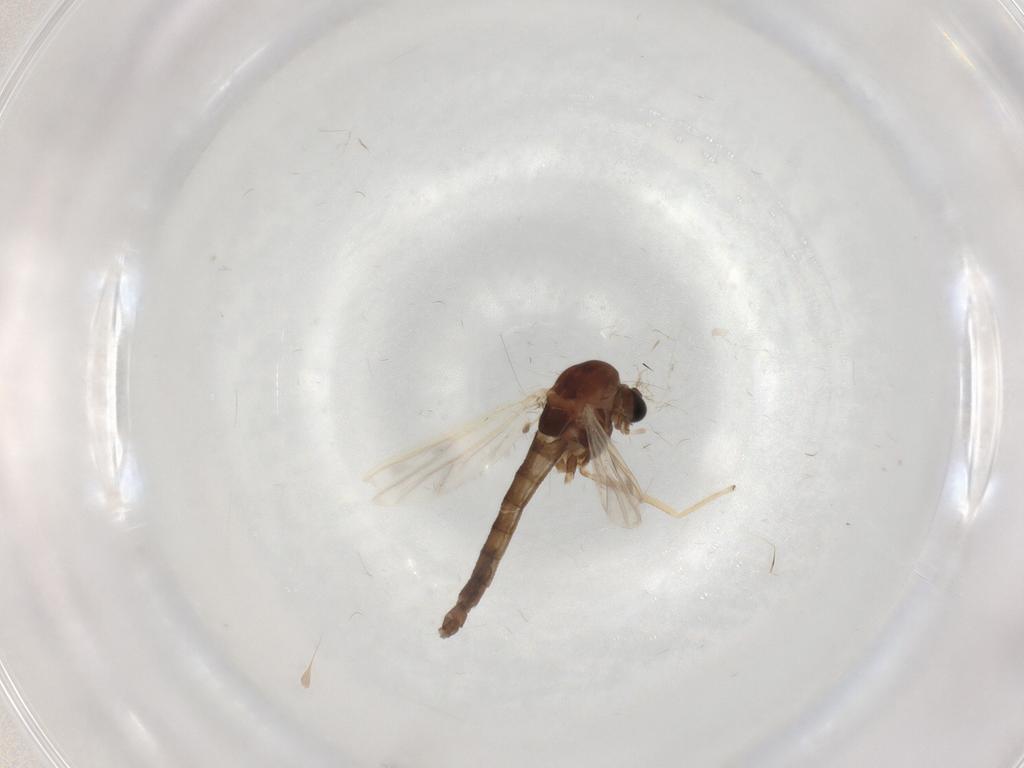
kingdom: Animalia
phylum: Arthropoda
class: Insecta
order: Diptera
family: Chironomidae
